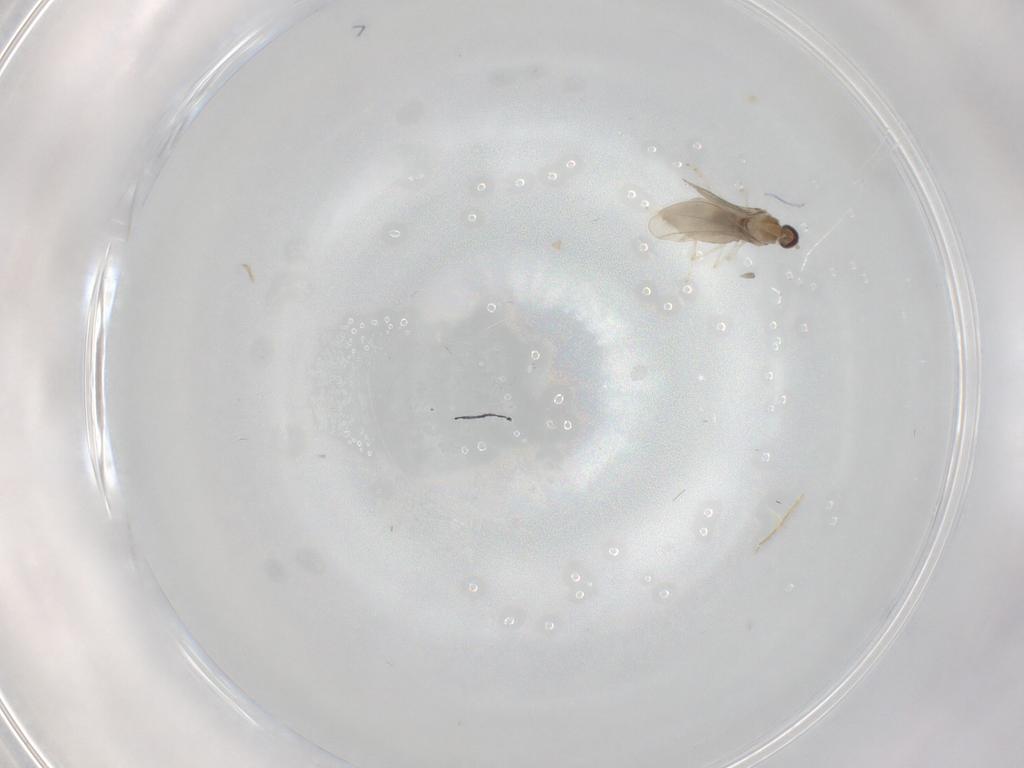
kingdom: Animalia
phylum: Arthropoda
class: Insecta
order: Diptera
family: Cecidomyiidae
